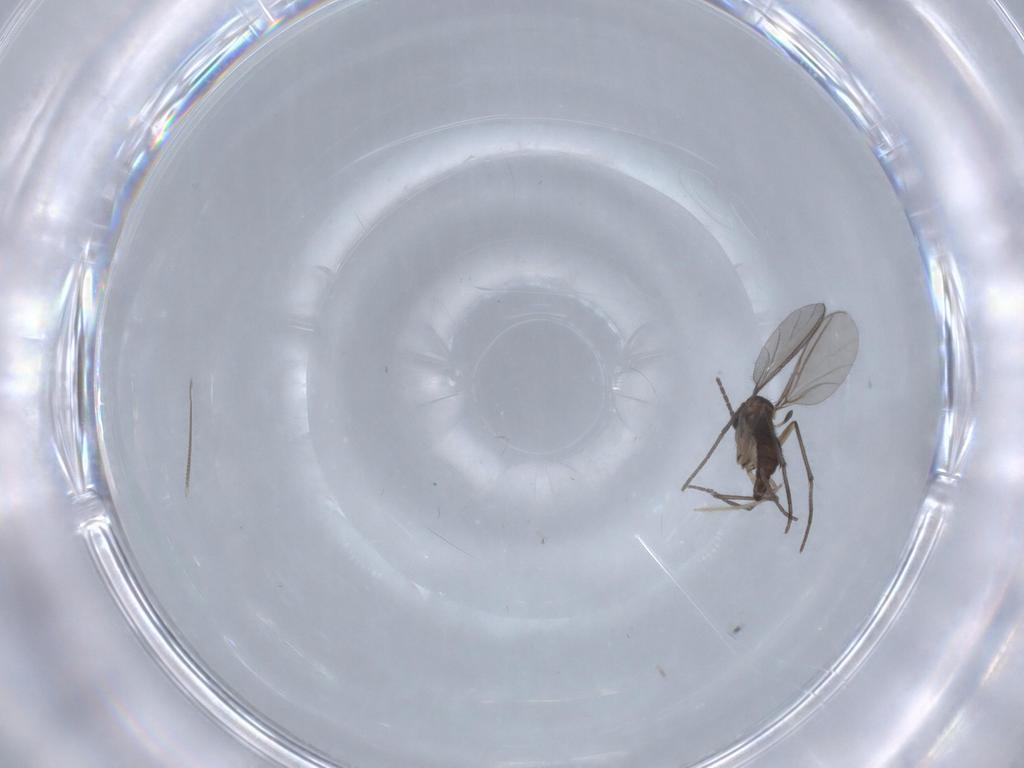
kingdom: Animalia
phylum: Arthropoda
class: Insecta
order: Diptera
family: Sciaridae
